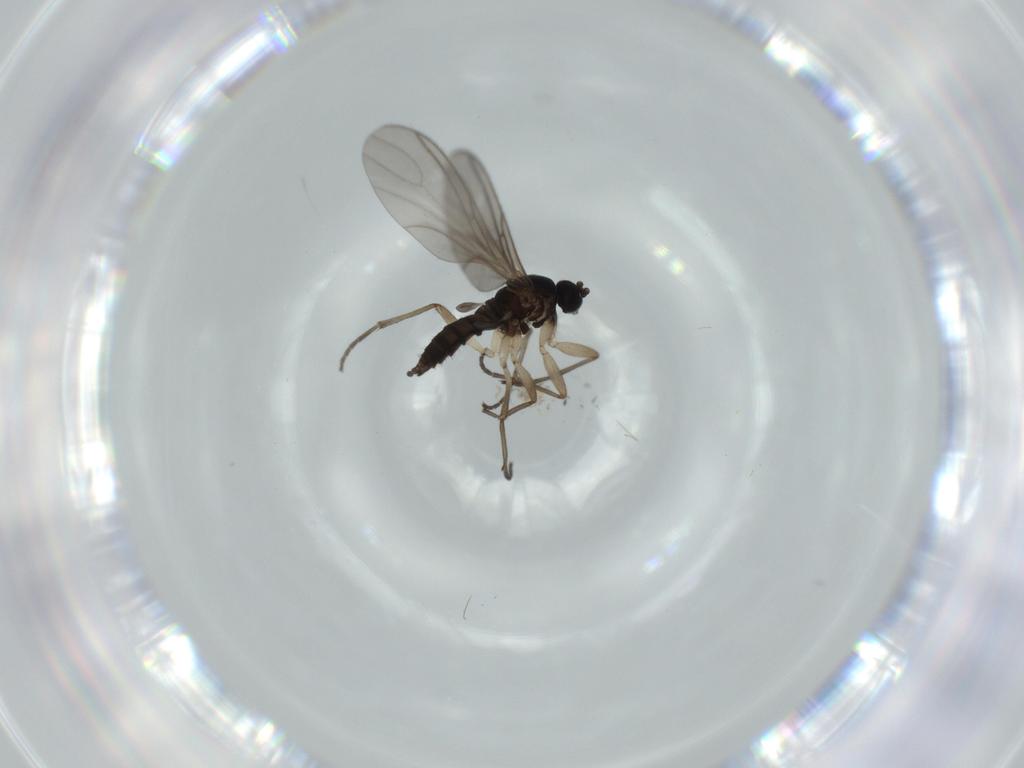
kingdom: Animalia
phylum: Arthropoda
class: Insecta
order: Diptera
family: Sciaridae
